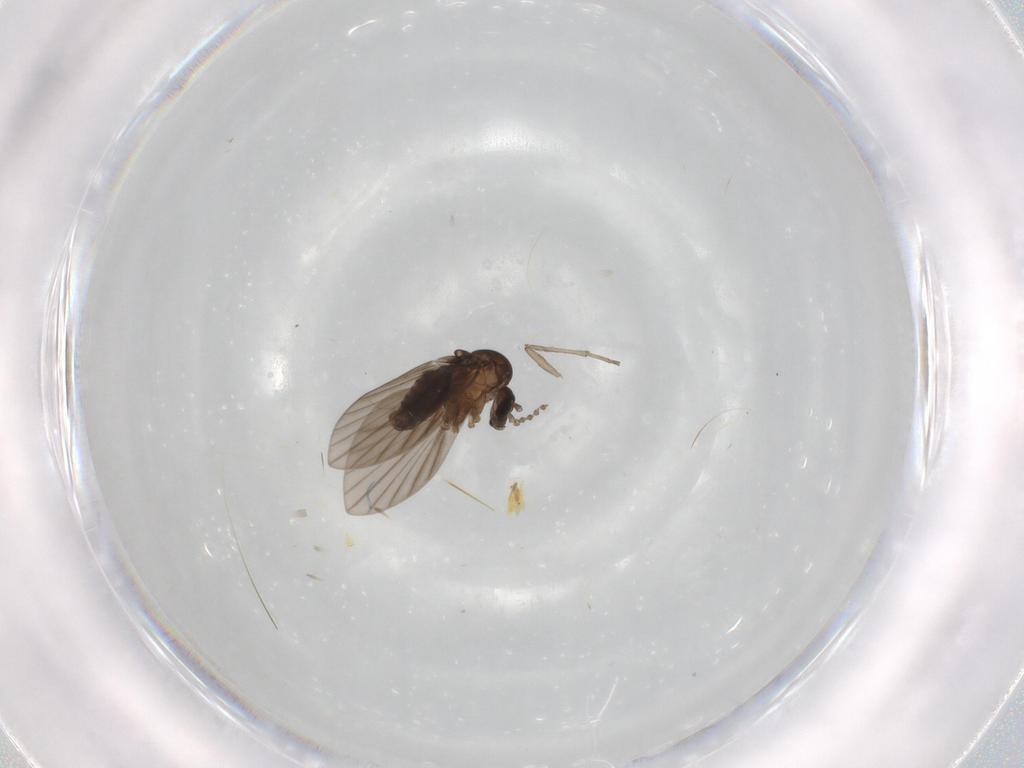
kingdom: Animalia
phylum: Arthropoda
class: Insecta
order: Diptera
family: Psychodidae
